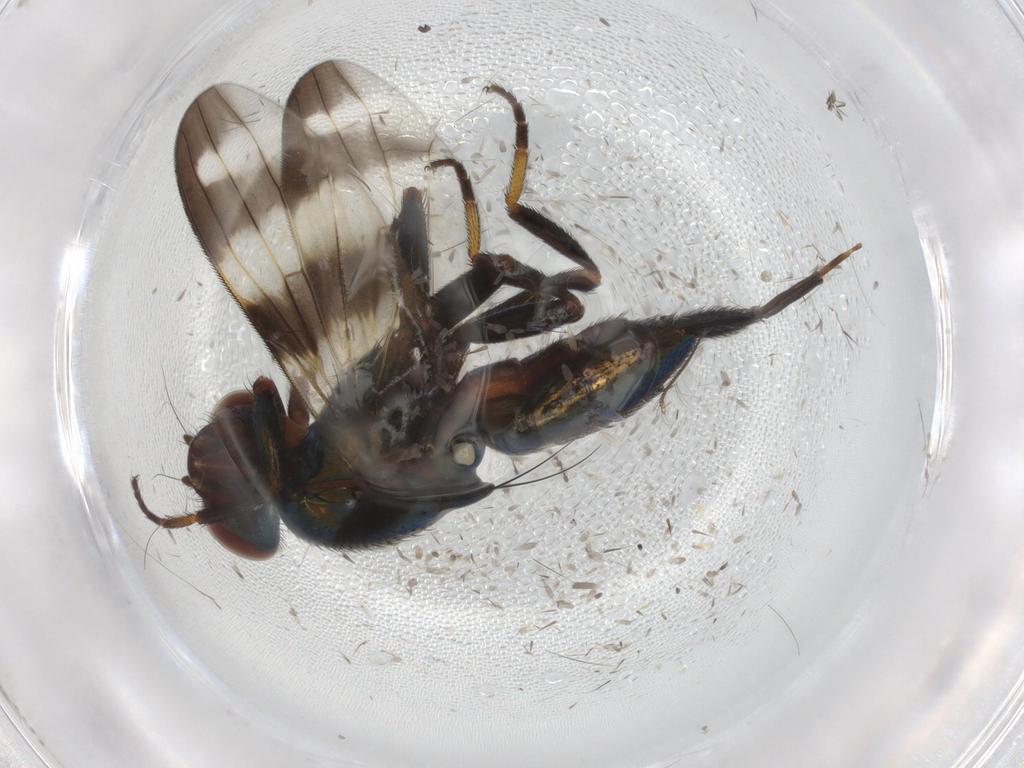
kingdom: Animalia
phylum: Arthropoda
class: Insecta
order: Diptera
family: Ulidiidae
